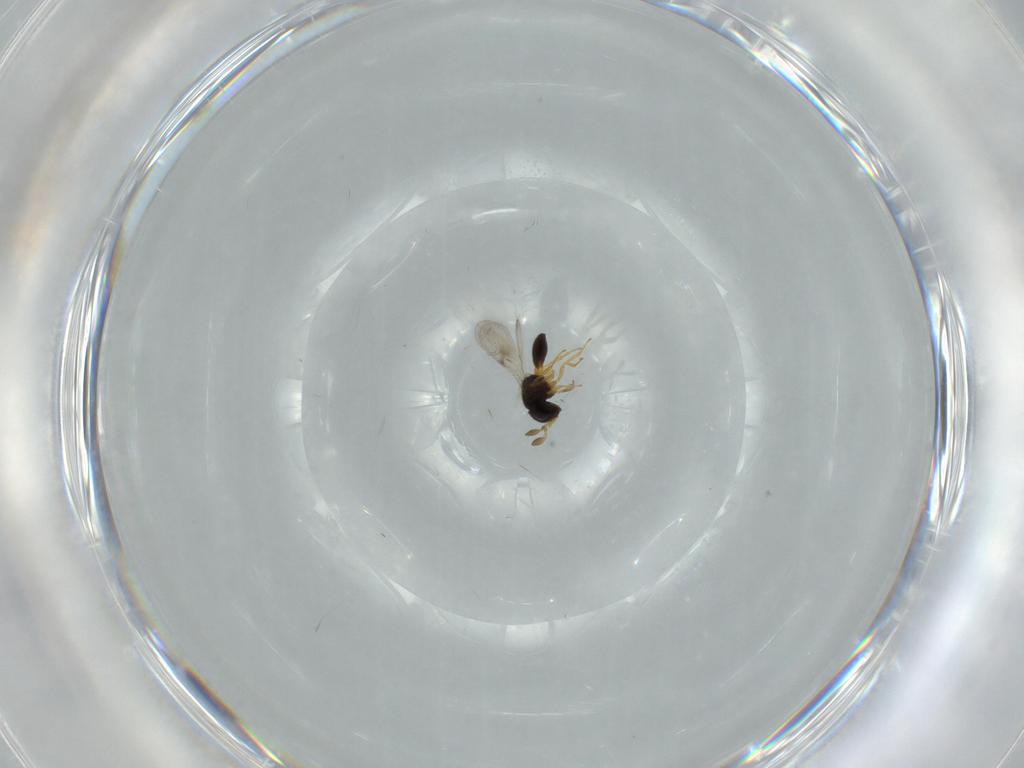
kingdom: Animalia
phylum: Arthropoda
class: Insecta
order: Hymenoptera
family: Scelionidae
